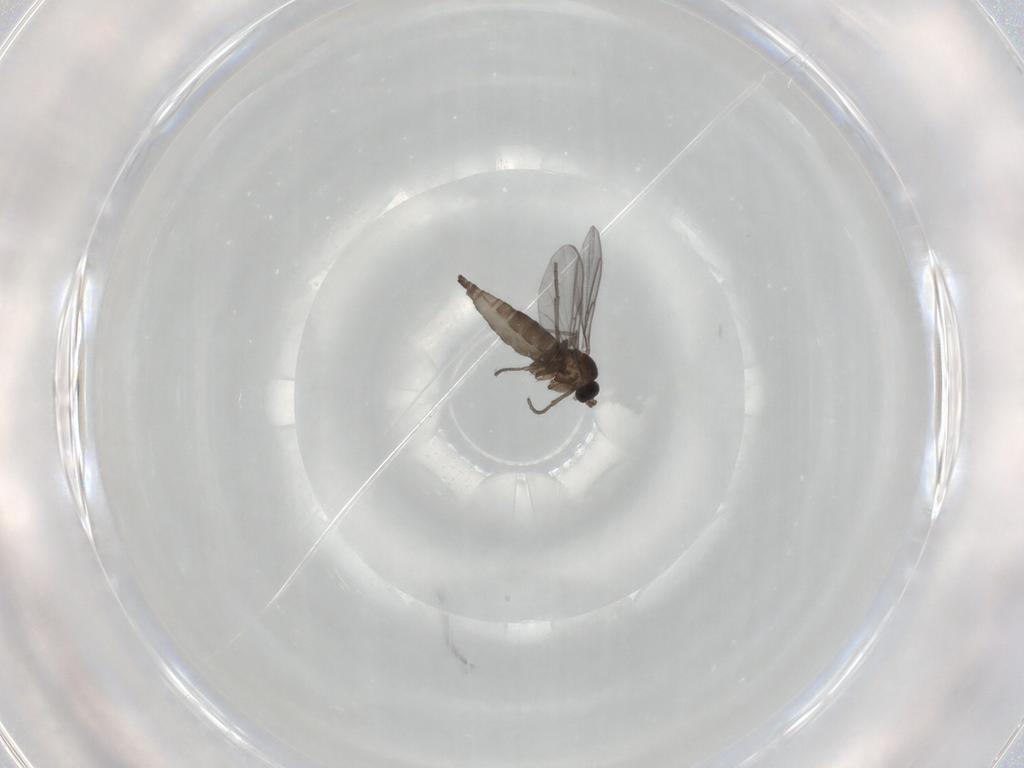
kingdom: Animalia
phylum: Arthropoda
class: Insecta
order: Diptera
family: Sciaridae
